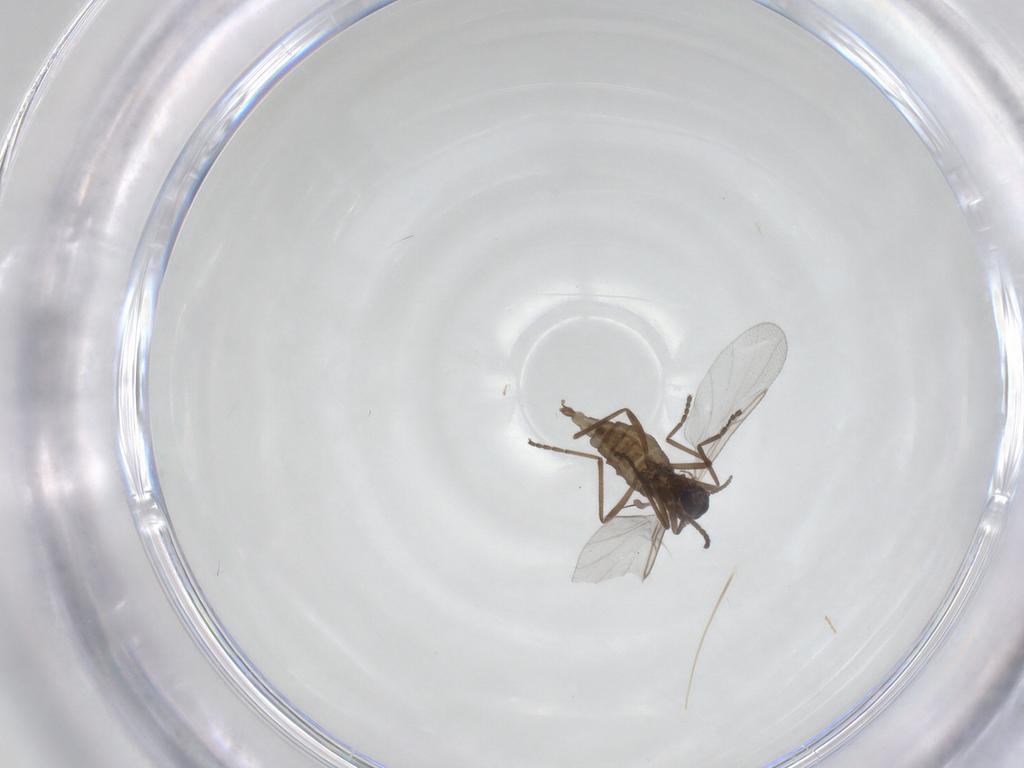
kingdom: Animalia
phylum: Arthropoda
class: Insecta
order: Diptera
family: Cecidomyiidae
